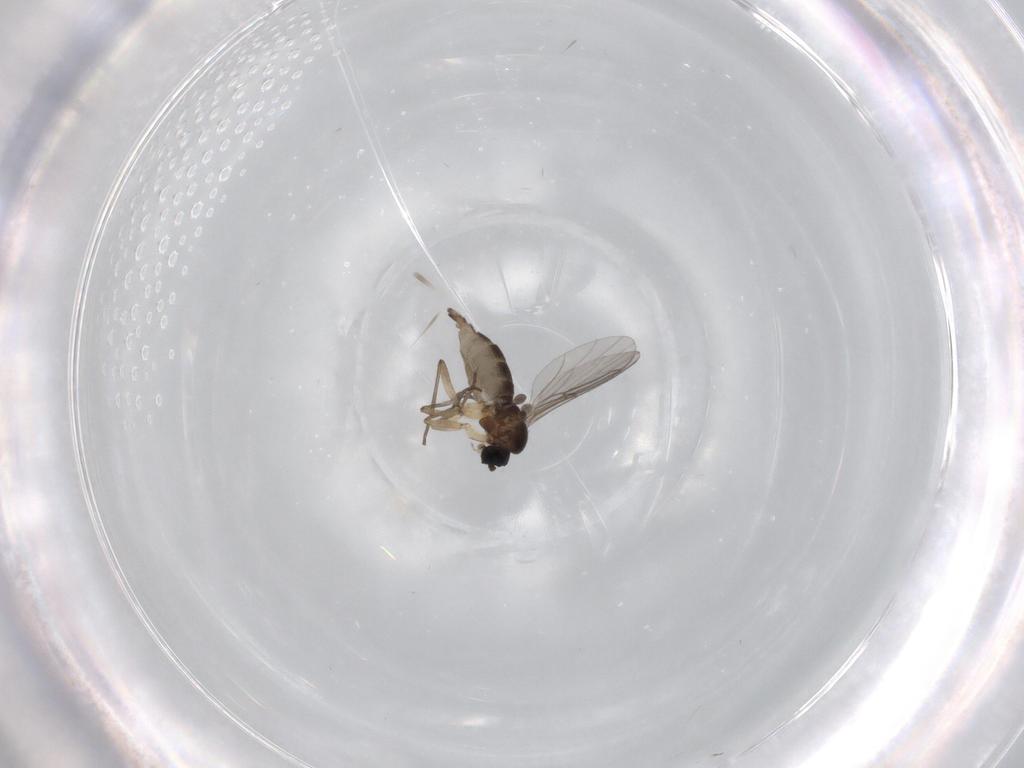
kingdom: Animalia
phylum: Arthropoda
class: Insecta
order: Diptera
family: Sciaridae
